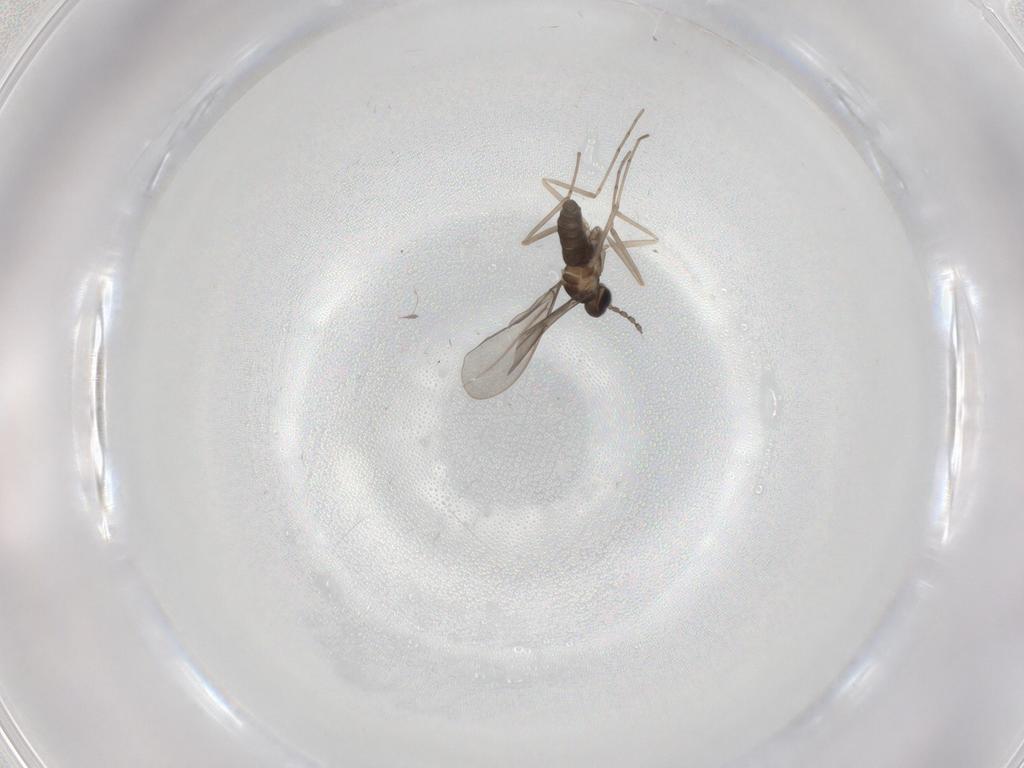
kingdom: Animalia
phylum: Arthropoda
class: Insecta
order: Diptera
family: Cecidomyiidae
